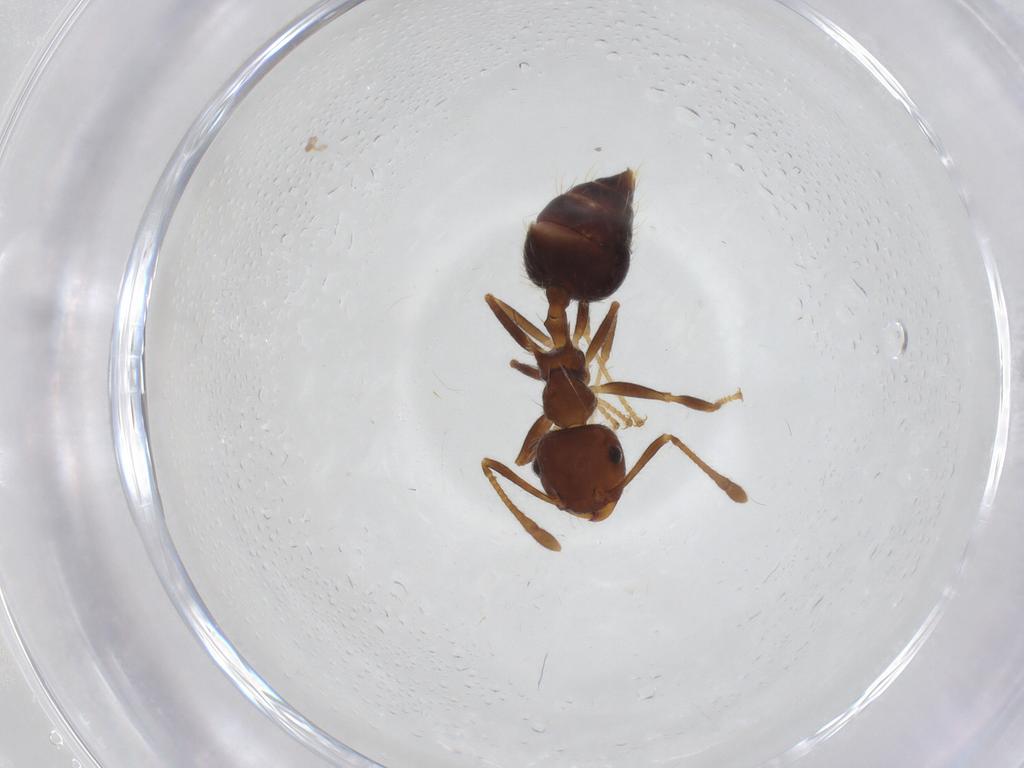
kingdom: Animalia
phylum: Arthropoda
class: Insecta
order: Hymenoptera
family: Formicidae
